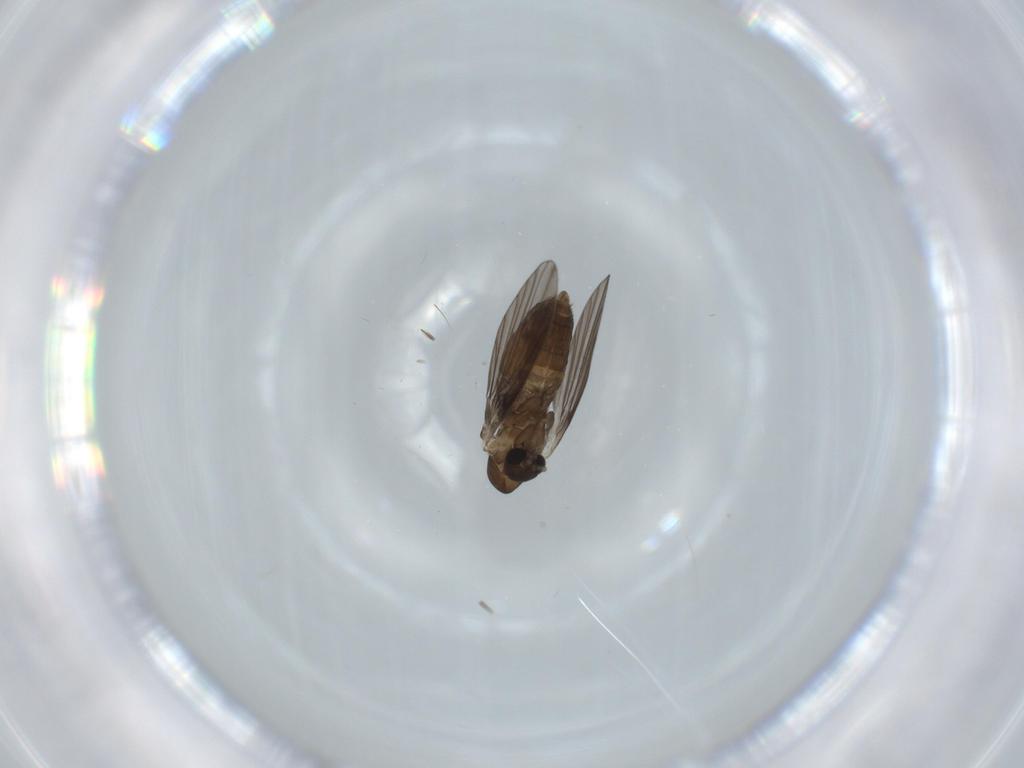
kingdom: Animalia
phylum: Arthropoda
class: Insecta
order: Diptera
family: Psychodidae
